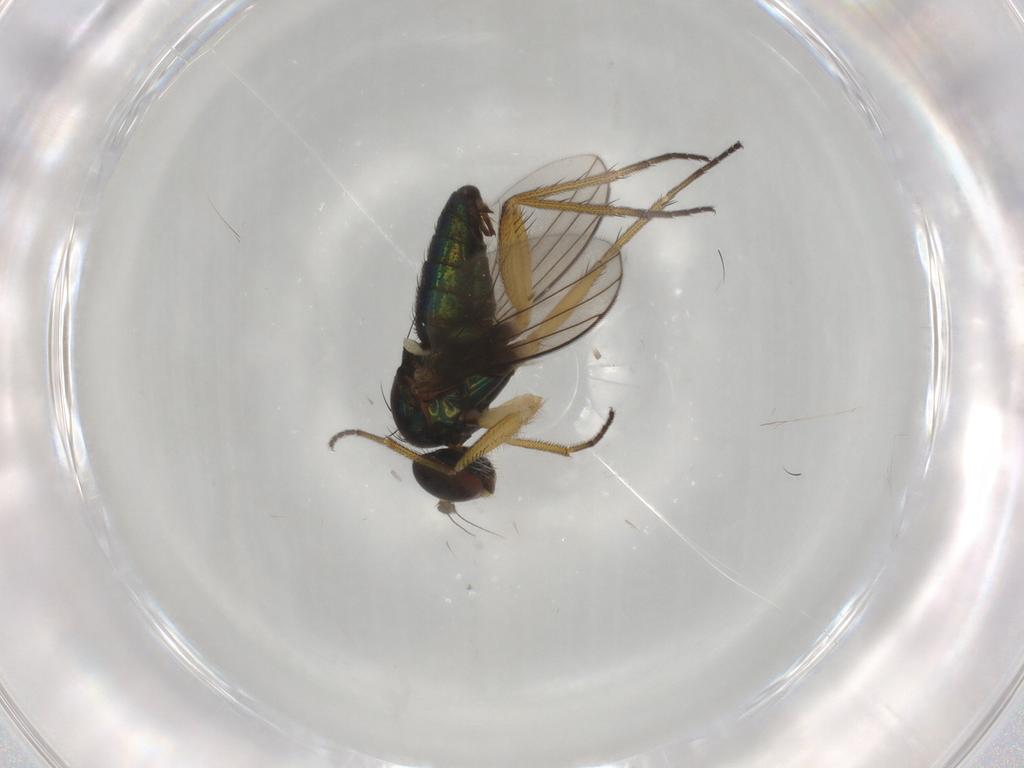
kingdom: Animalia
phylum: Arthropoda
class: Insecta
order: Diptera
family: Dolichopodidae
